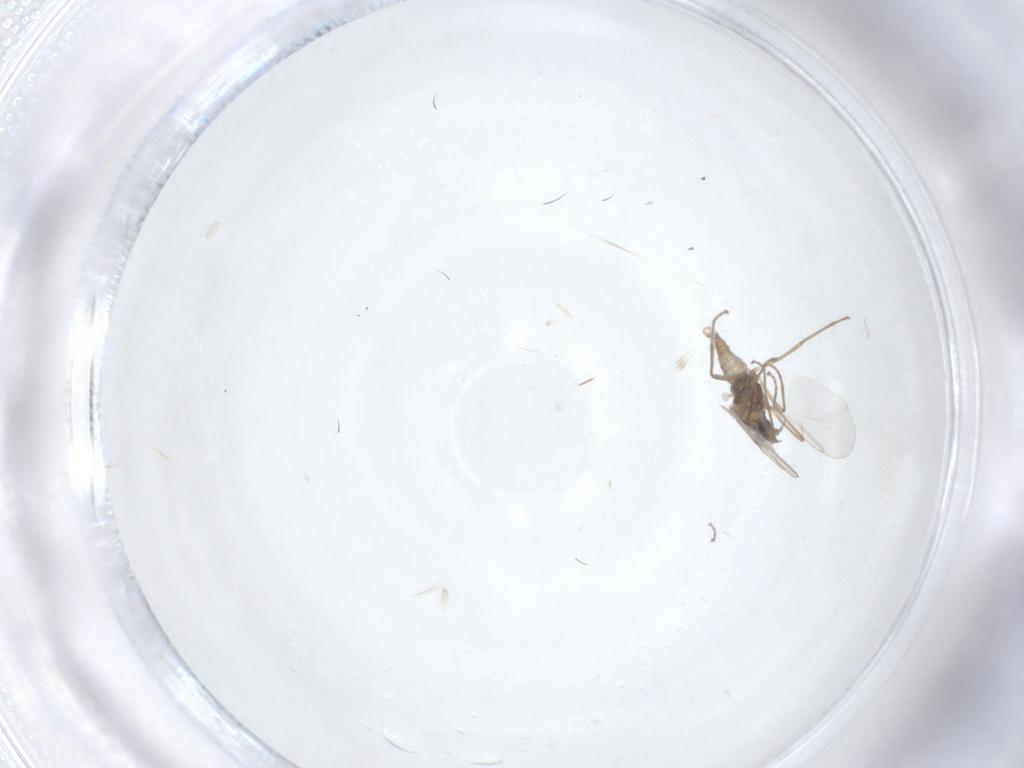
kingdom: Animalia
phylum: Arthropoda
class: Insecta
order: Diptera
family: Cecidomyiidae
